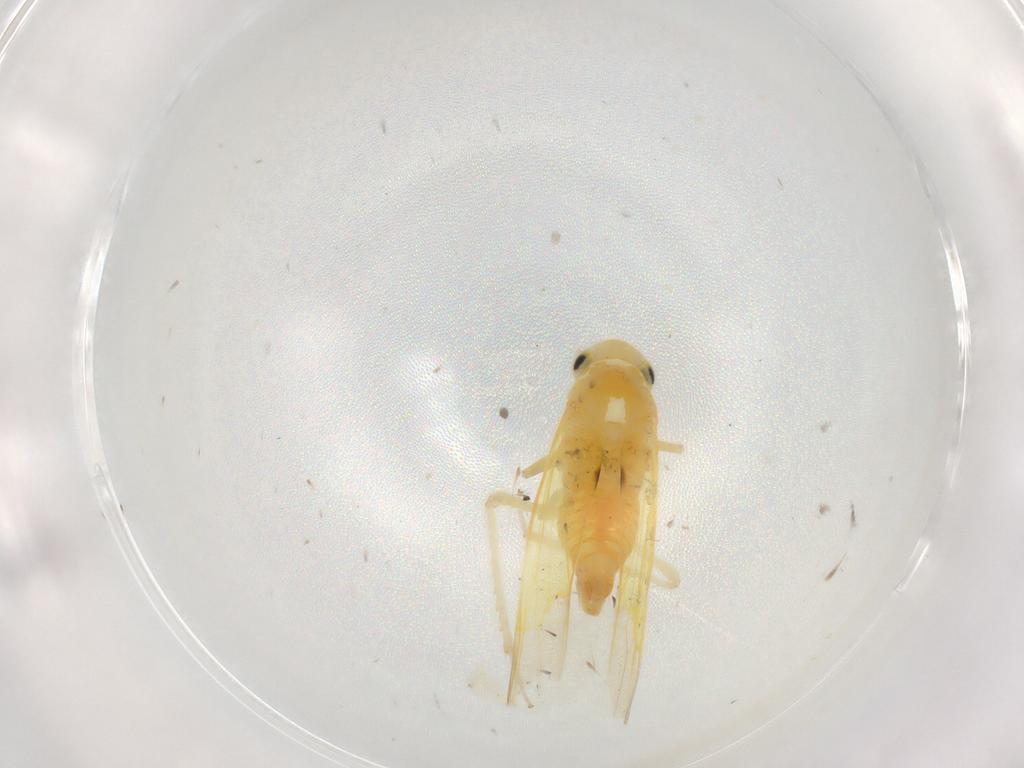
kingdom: Animalia
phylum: Arthropoda
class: Insecta
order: Hemiptera
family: Cicadellidae
